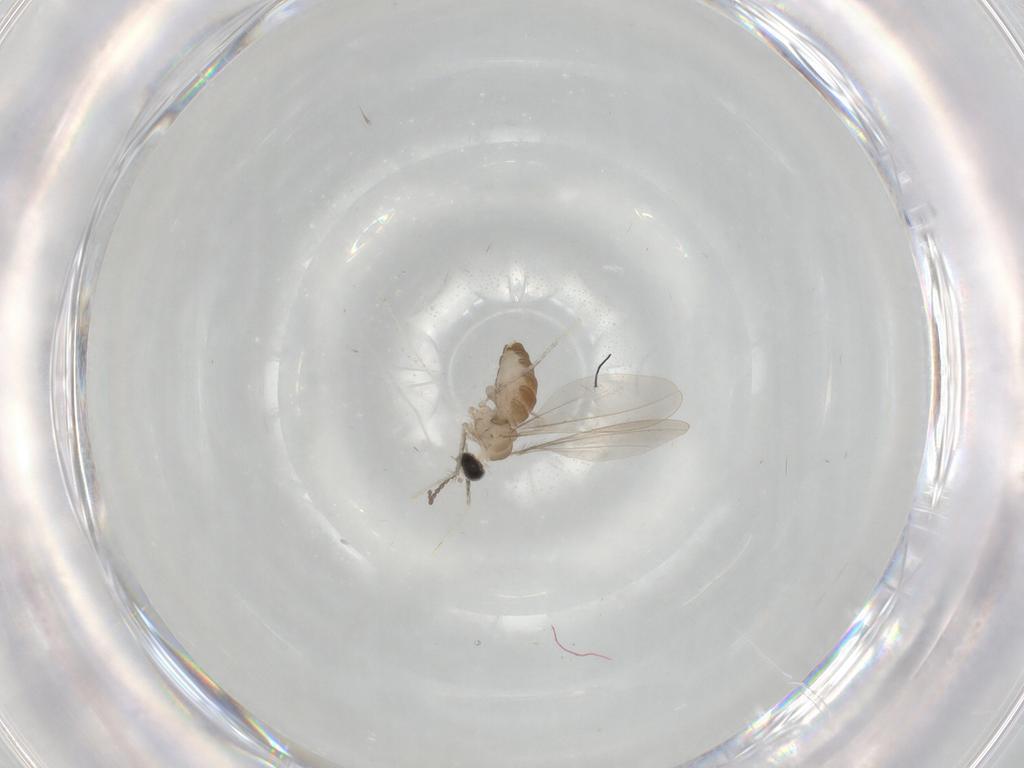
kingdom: Animalia
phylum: Arthropoda
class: Insecta
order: Diptera
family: Cecidomyiidae
